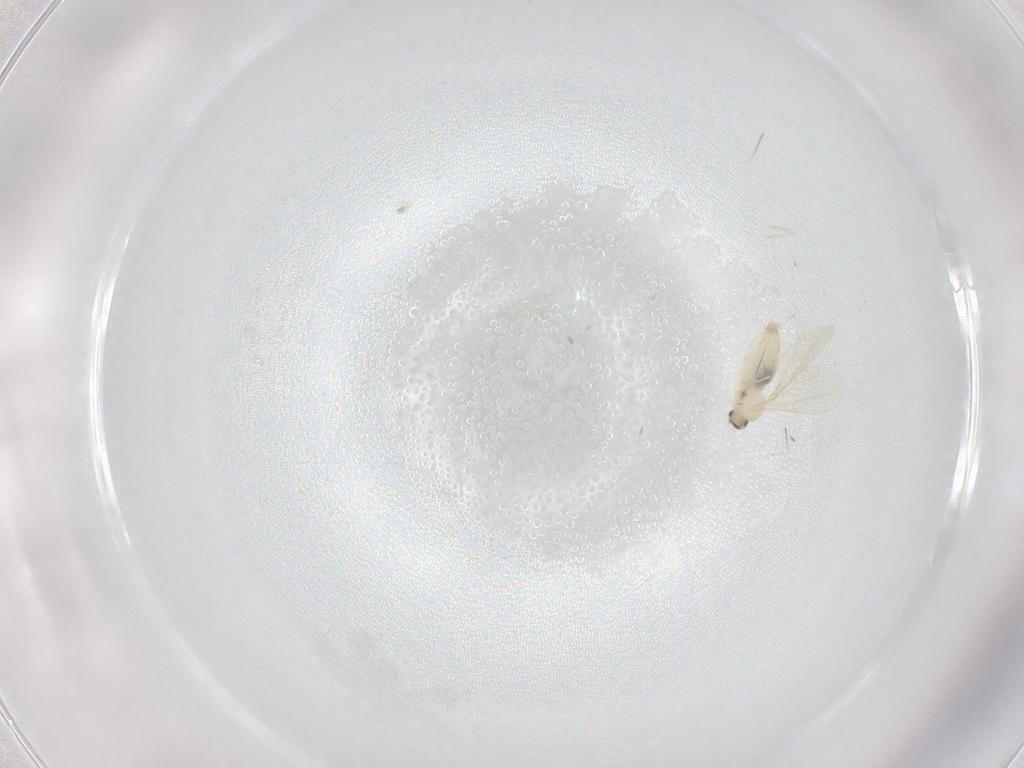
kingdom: Animalia
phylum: Arthropoda
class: Insecta
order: Diptera
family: Cecidomyiidae
